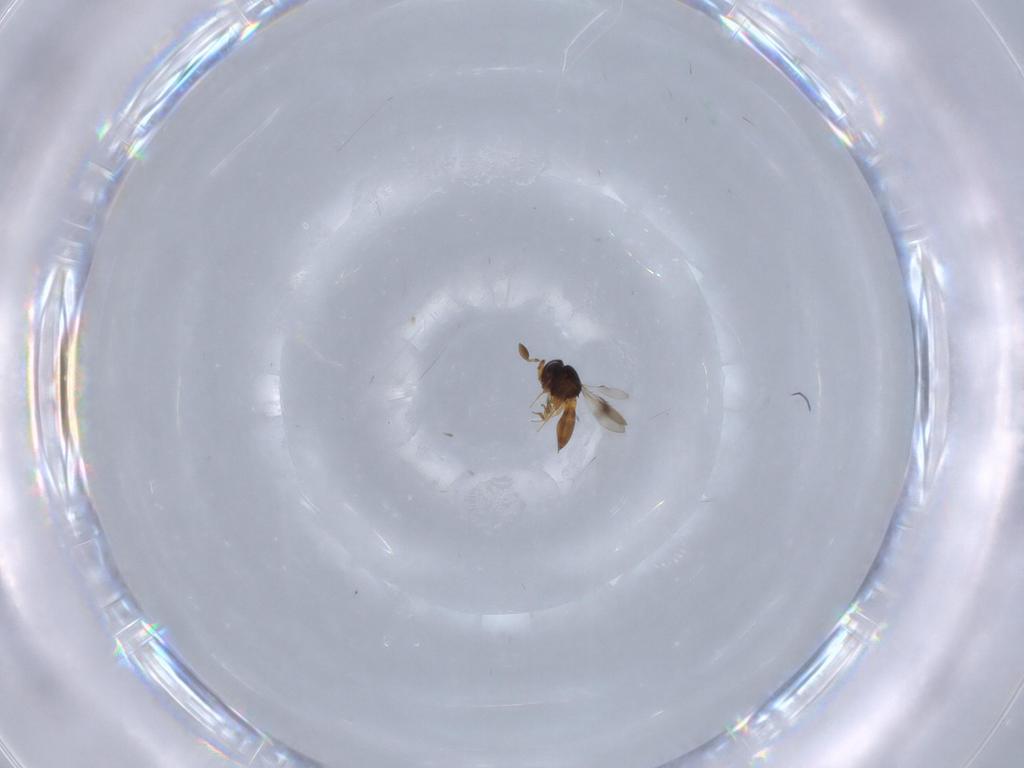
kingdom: Animalia
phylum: Arthropoda
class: Insecta
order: Hymenoptera
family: Scelionidae
